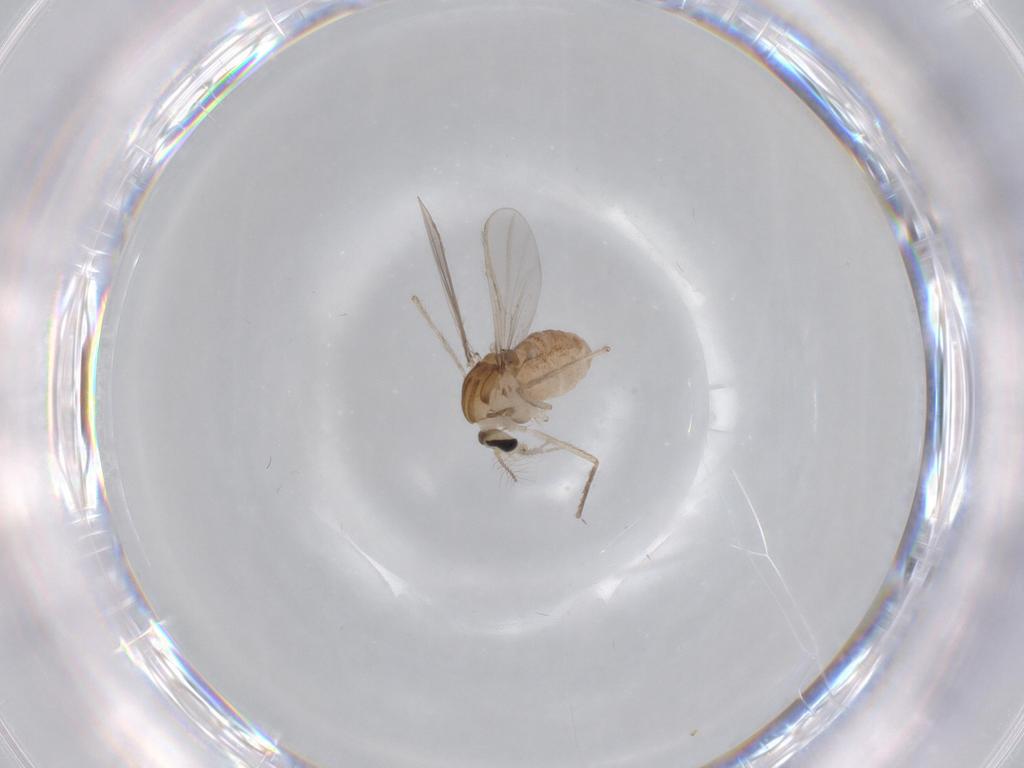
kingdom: Animalia
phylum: Arthropoda
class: Insecta
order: Diptera
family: Chironomidae
